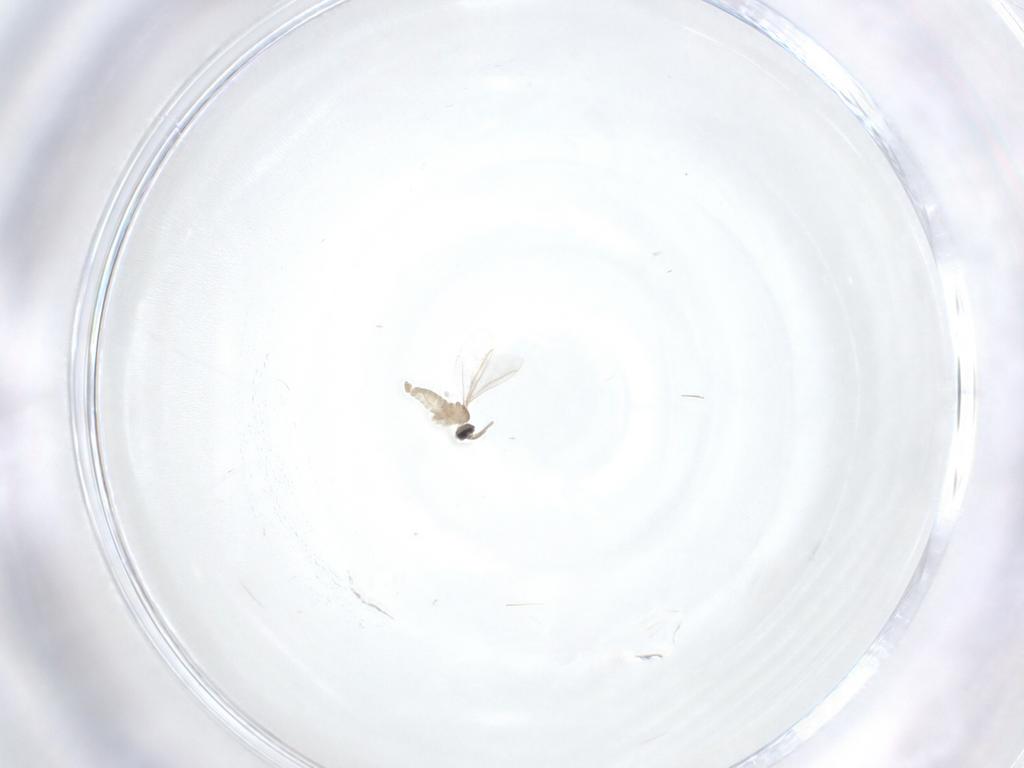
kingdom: Animalia
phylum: Arthropoda
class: Insecta
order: Diptera
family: Cecidomyiidae
